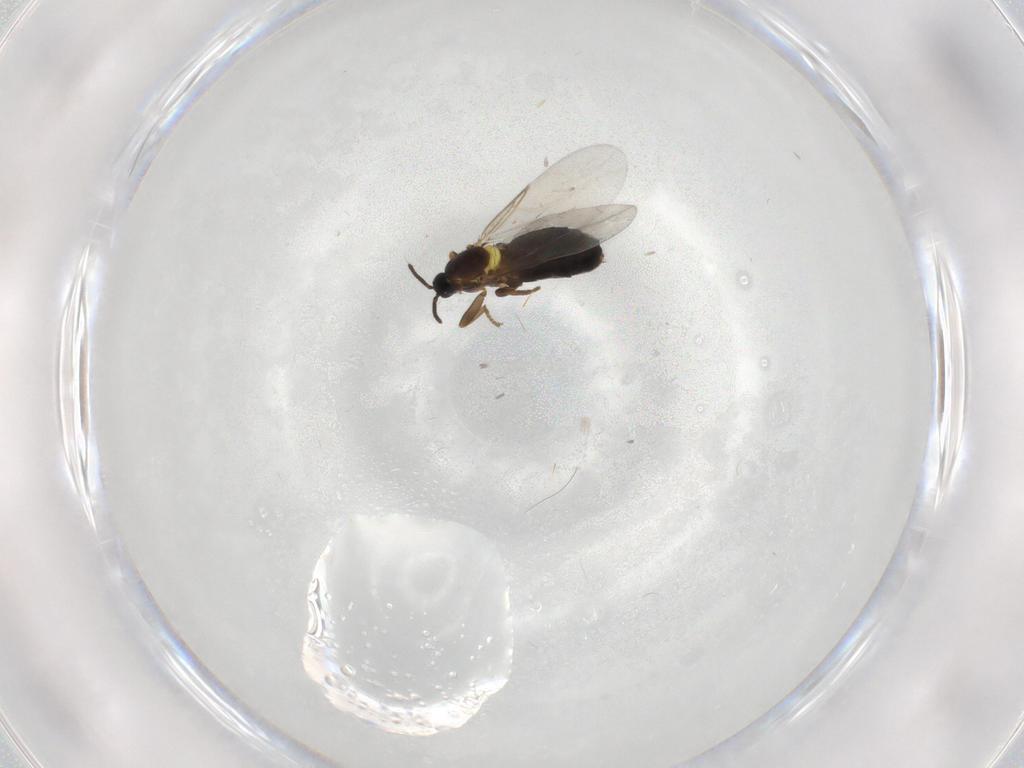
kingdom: Animalia
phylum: Arthropoda
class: Insecta
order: Diptera
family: Scatopsidae
